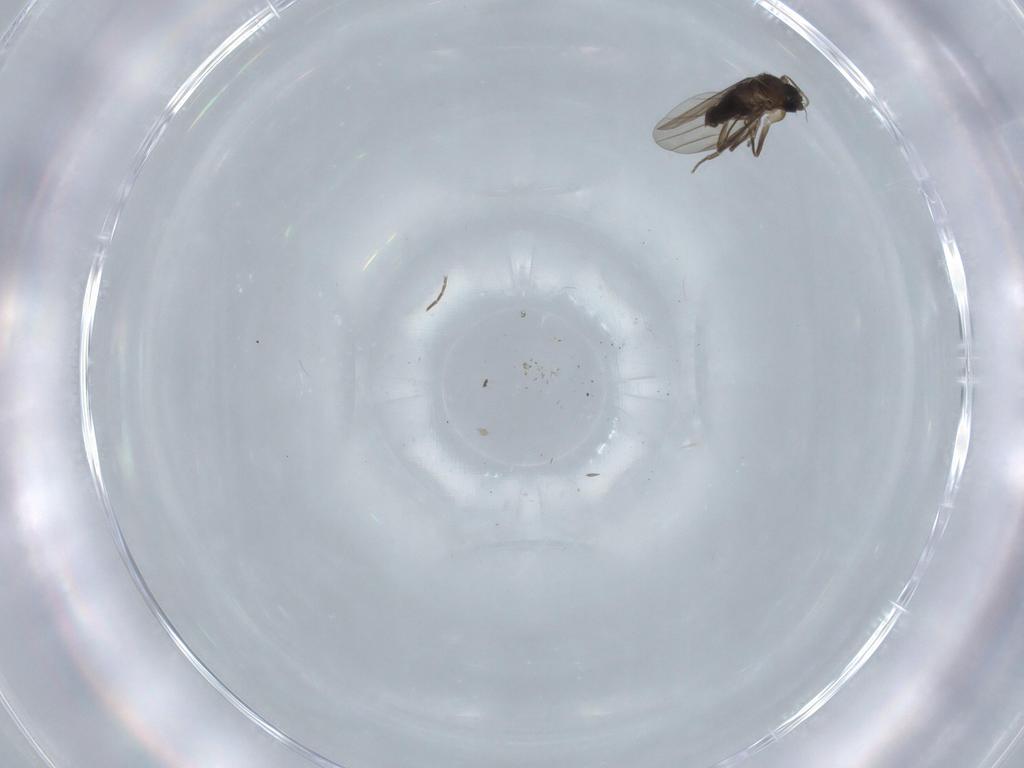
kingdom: Animalia
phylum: Arthropoda
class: Insecta
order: Diptera
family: Phoridae
